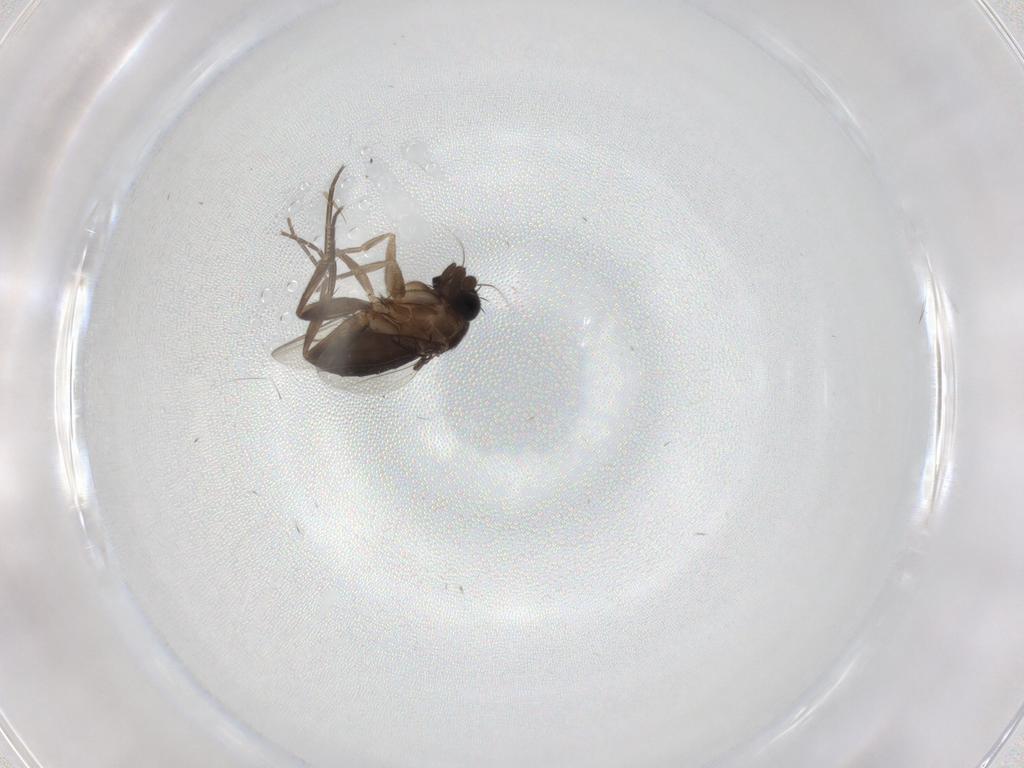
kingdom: Animalia
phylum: Arthropoda
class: Insecta
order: Diptera
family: Phoridae
